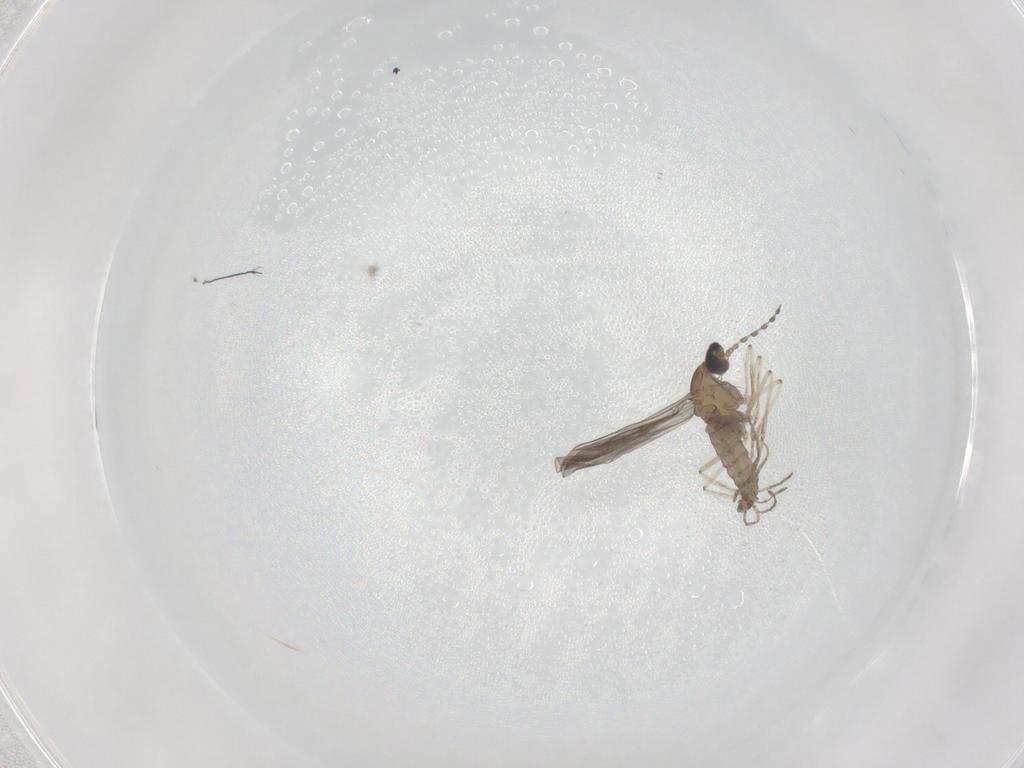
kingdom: Animalia
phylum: Arthropoda
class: Insecta
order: Diptera
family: Cecidomyiidae
